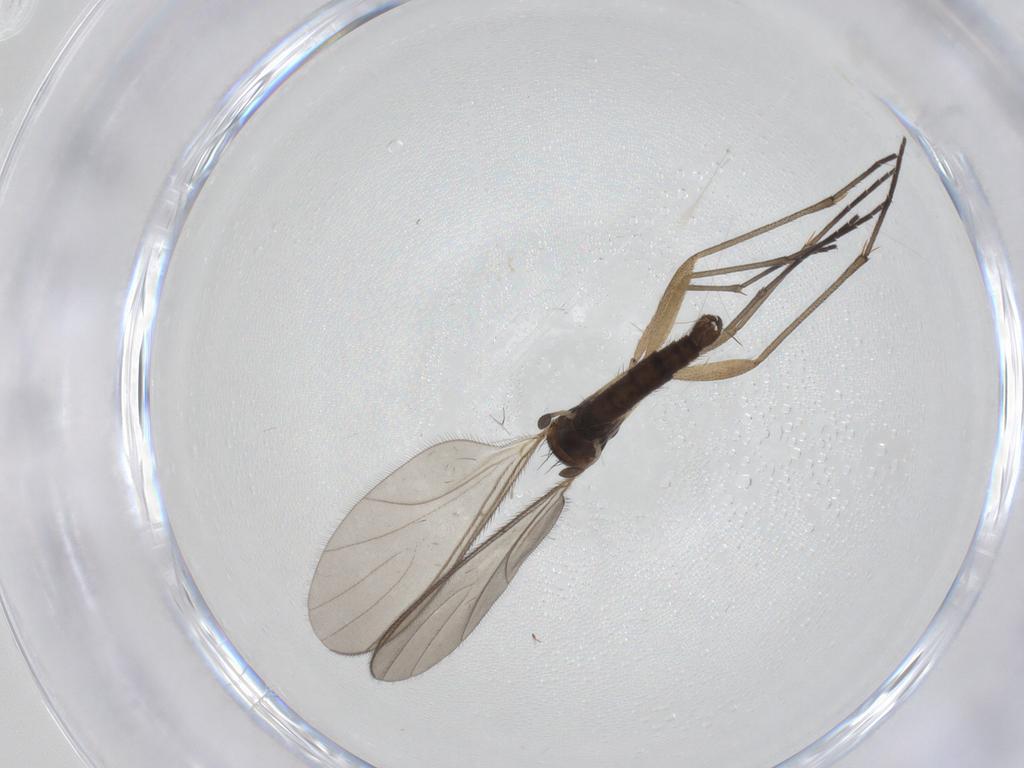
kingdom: Animalia
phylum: Arthropoda
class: Insecta
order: Diptera
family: Sciaridae
